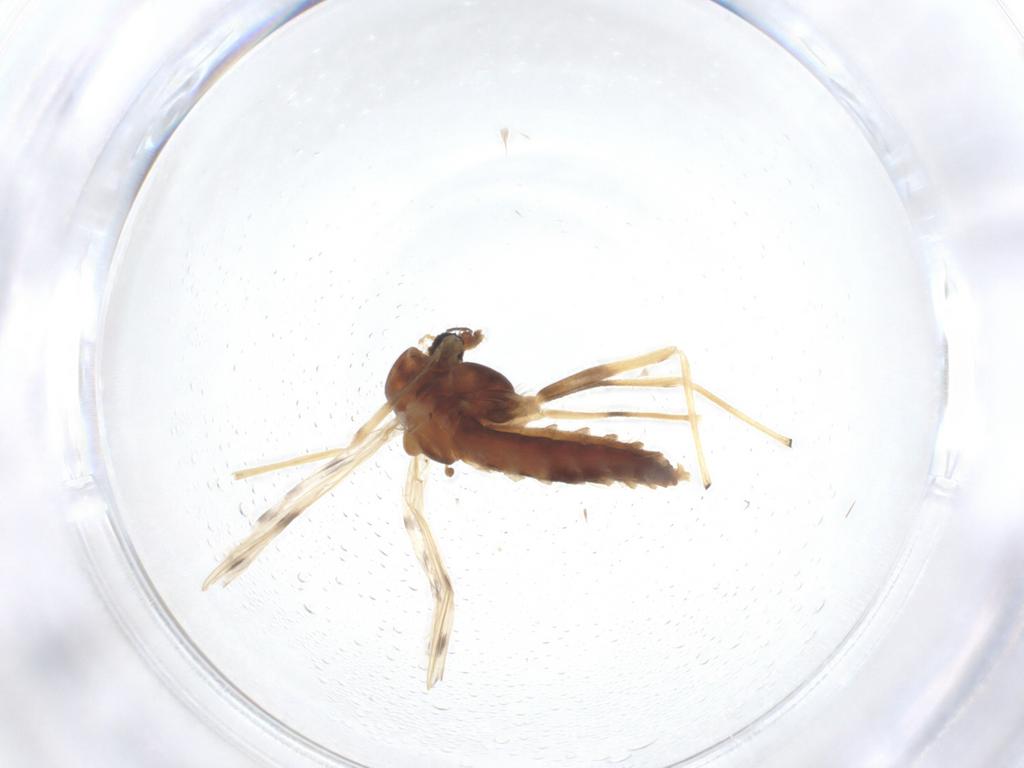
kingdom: Animalia
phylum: Arthropoda
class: Insecta
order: Diptera
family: Chironomidae
